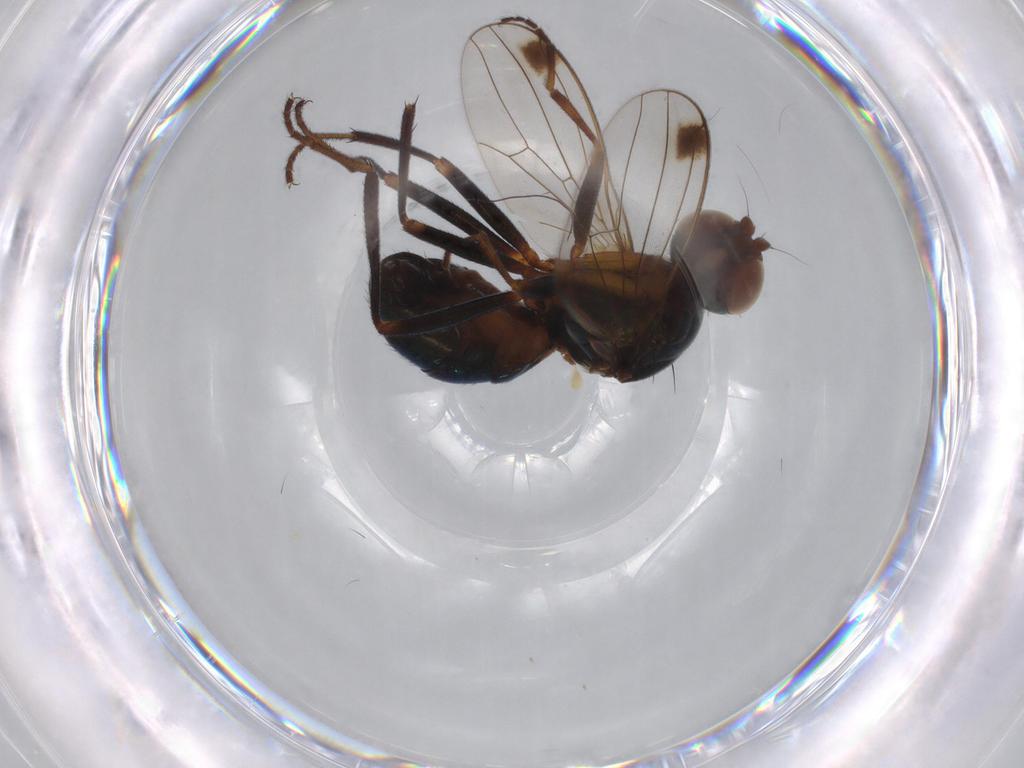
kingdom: Animalia
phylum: Arthropoda
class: Insecta
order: Diptera
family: Sepsidae
